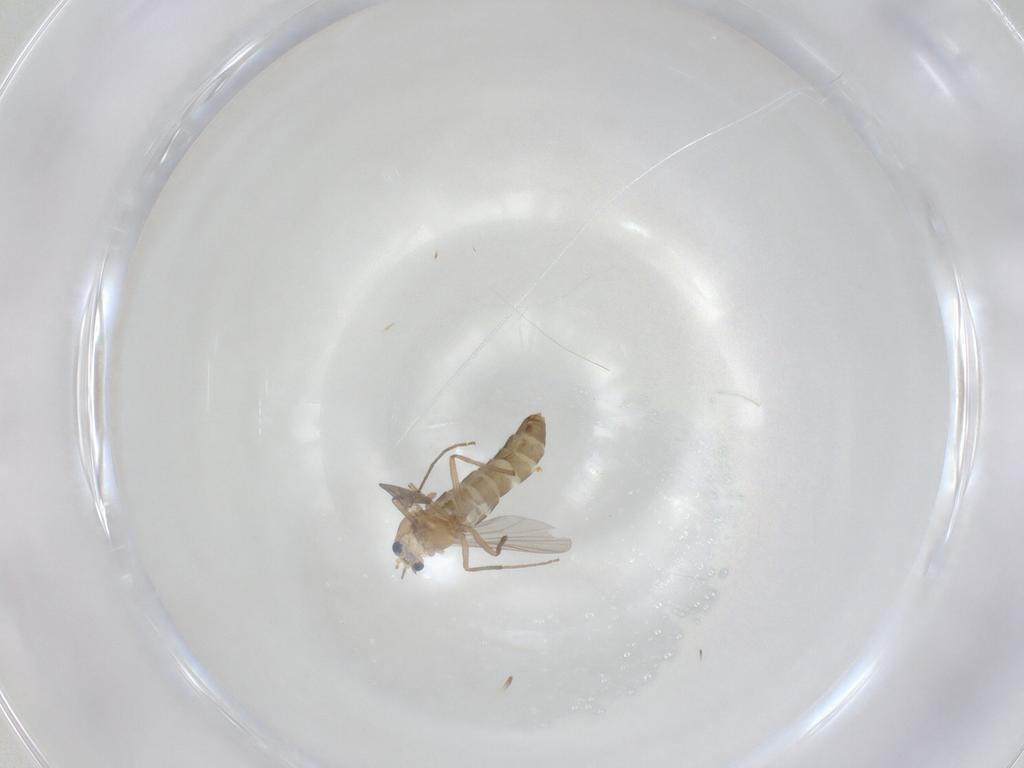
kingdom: Animalia
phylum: Arthropoda
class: Insecta
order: Diptera
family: Chironomidae
